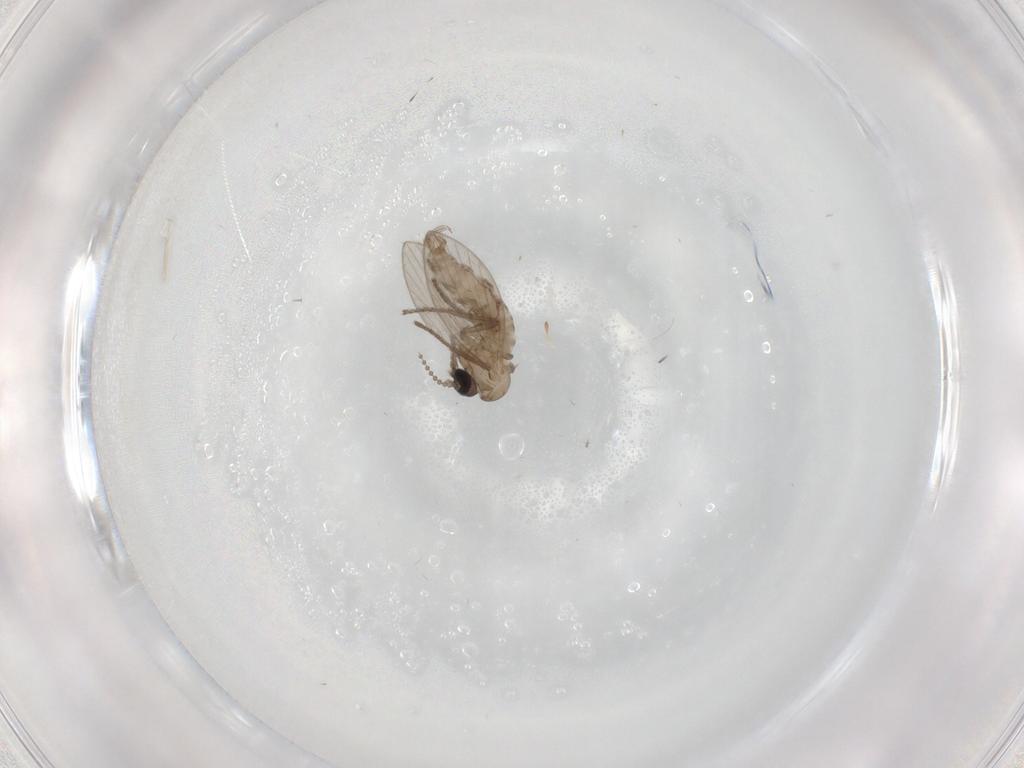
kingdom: Animalia
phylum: Arthropoda
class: Insecta
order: Diptera
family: Psychodidae
